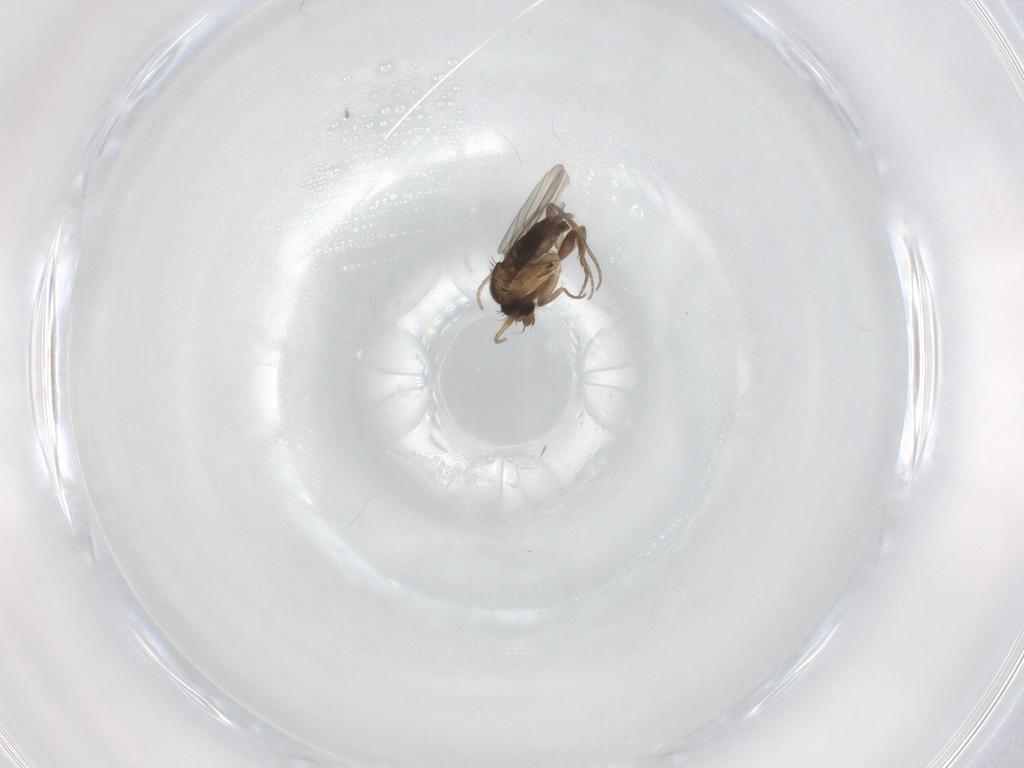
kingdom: Animalia
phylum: Arthropoda
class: Insecta
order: Diptera
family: Phoridae
